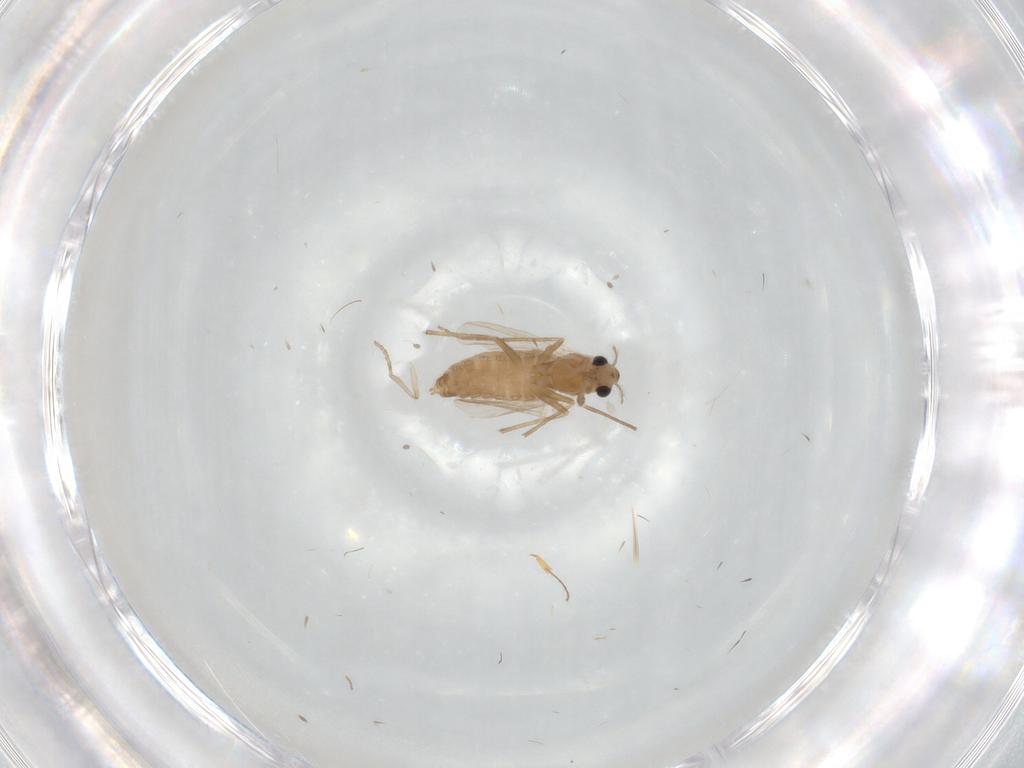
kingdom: Animalia
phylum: Arthropoda
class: Insecta
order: Diptera
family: Chironomidae
